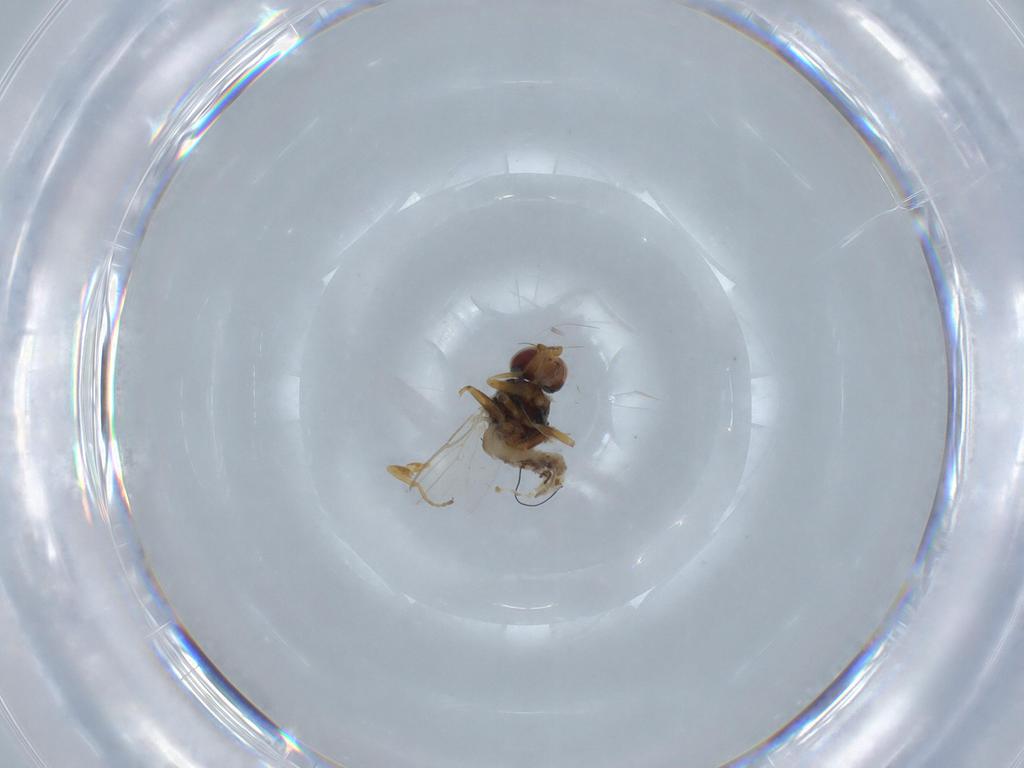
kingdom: Animalia
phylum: Arthropoda
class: Insecta
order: Diptera
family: Chloropidae
